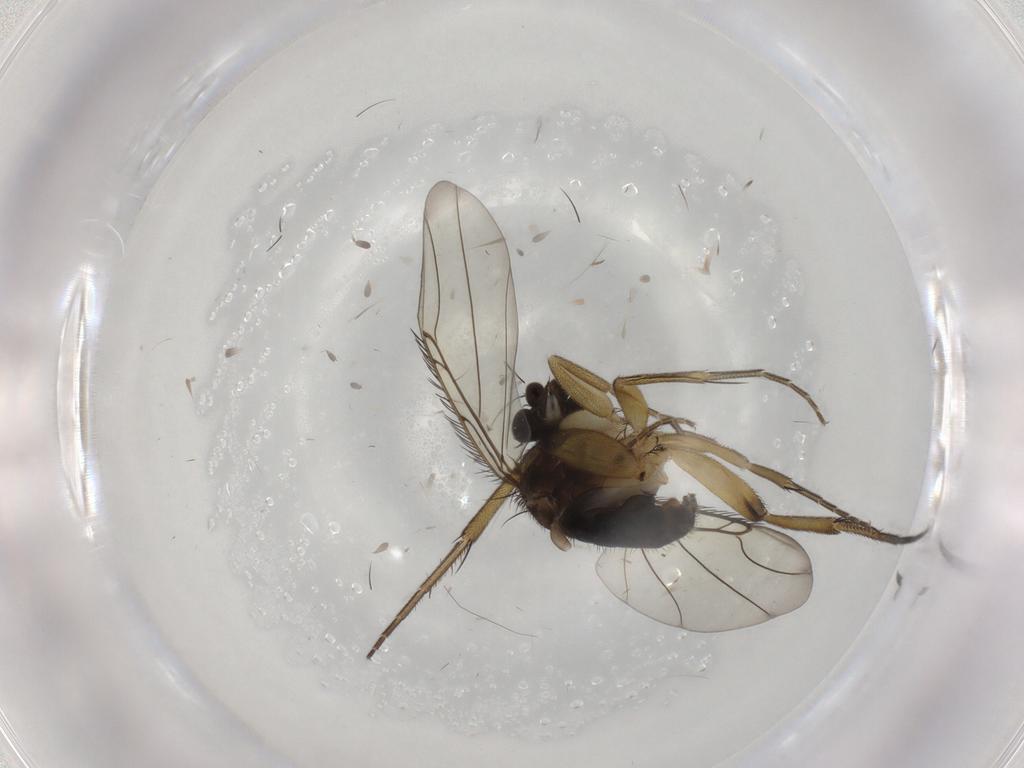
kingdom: Animalia
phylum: Arthropoda
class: Insecta
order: Diptera
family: Phoridae
